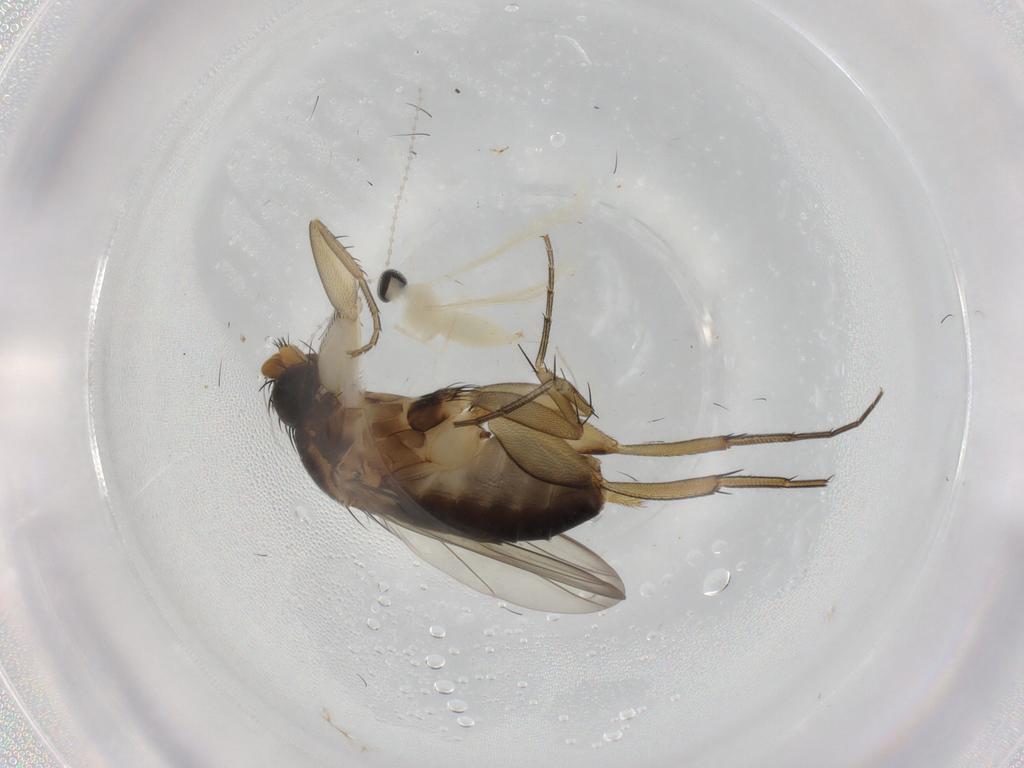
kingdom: Animalia
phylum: Arthropoda
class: Insecta
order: Diptera
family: Phoridae
